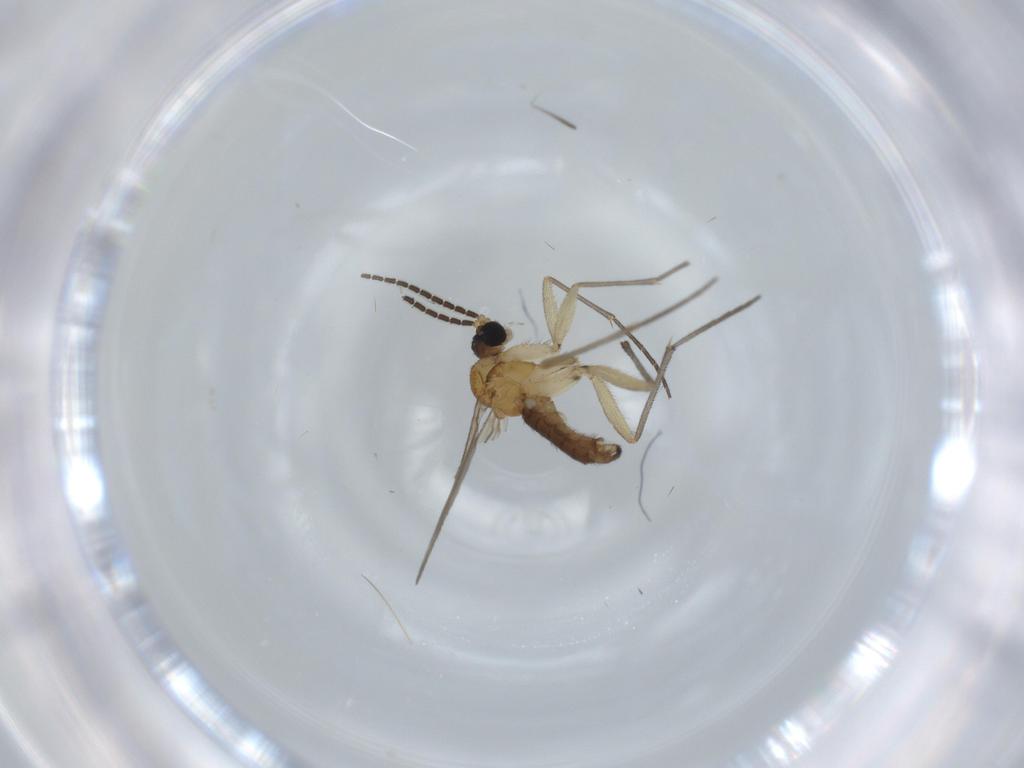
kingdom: Animalia
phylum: Arthropoda
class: Insecta
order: Diptera
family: Sciaridae
